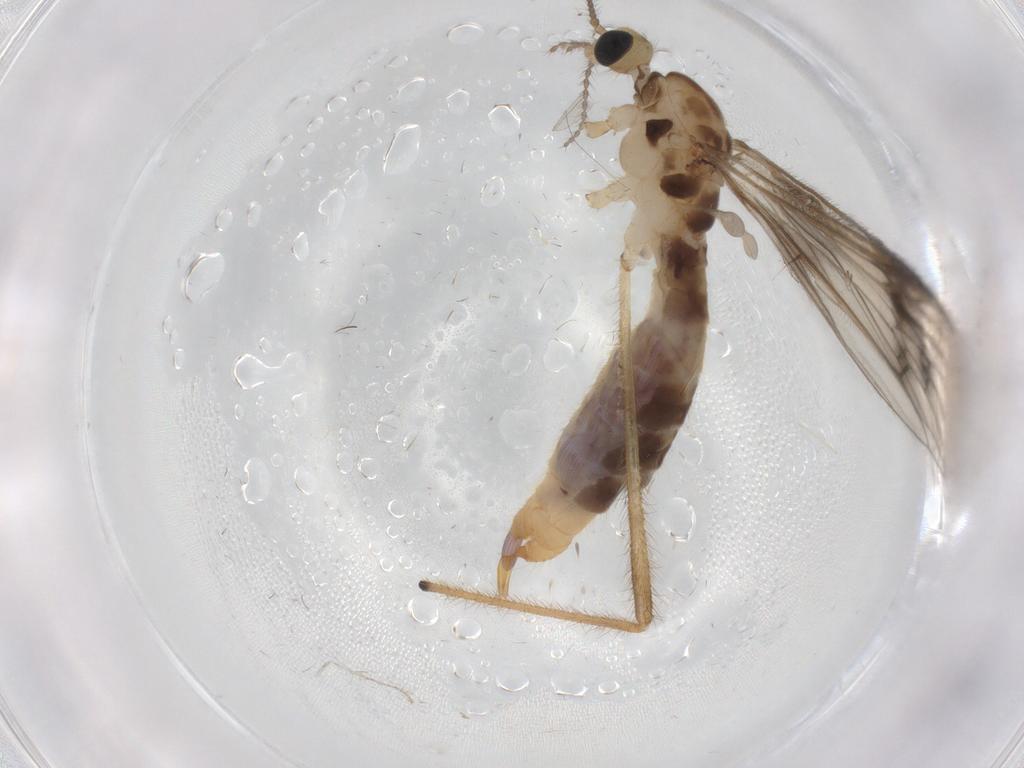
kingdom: Animalia
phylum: Arthropoda
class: Insecta
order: Diptera
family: Limoniidae
